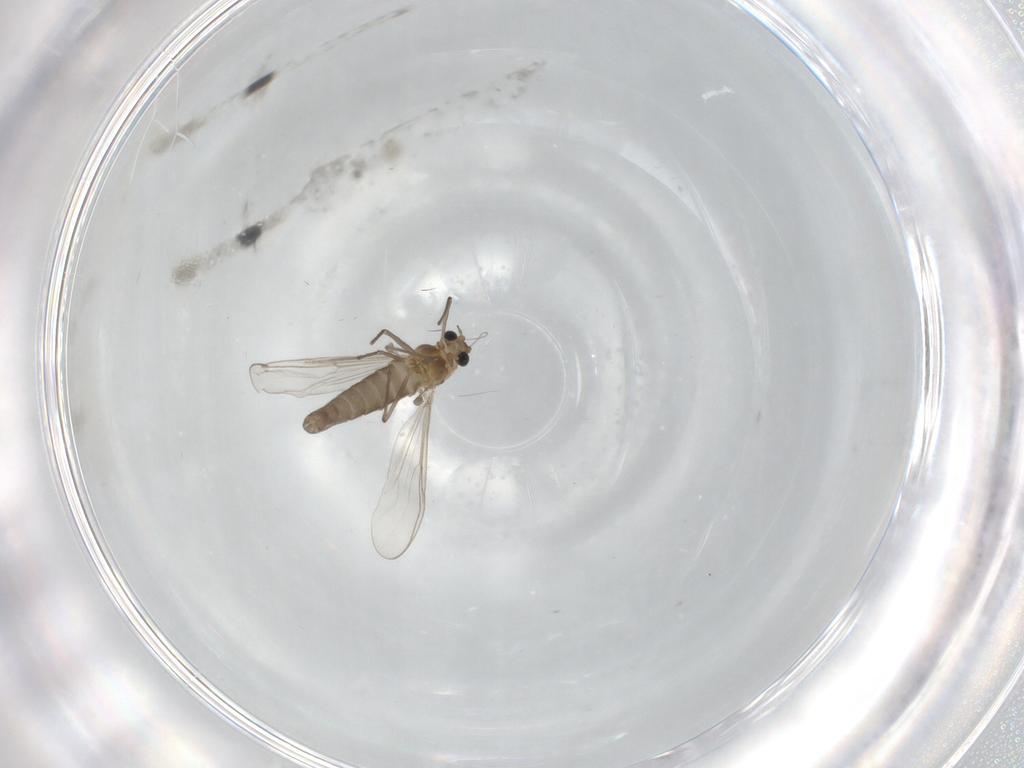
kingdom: Animalia
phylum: Arthropoda
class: Insecta
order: Diptera
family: Chironomidae
